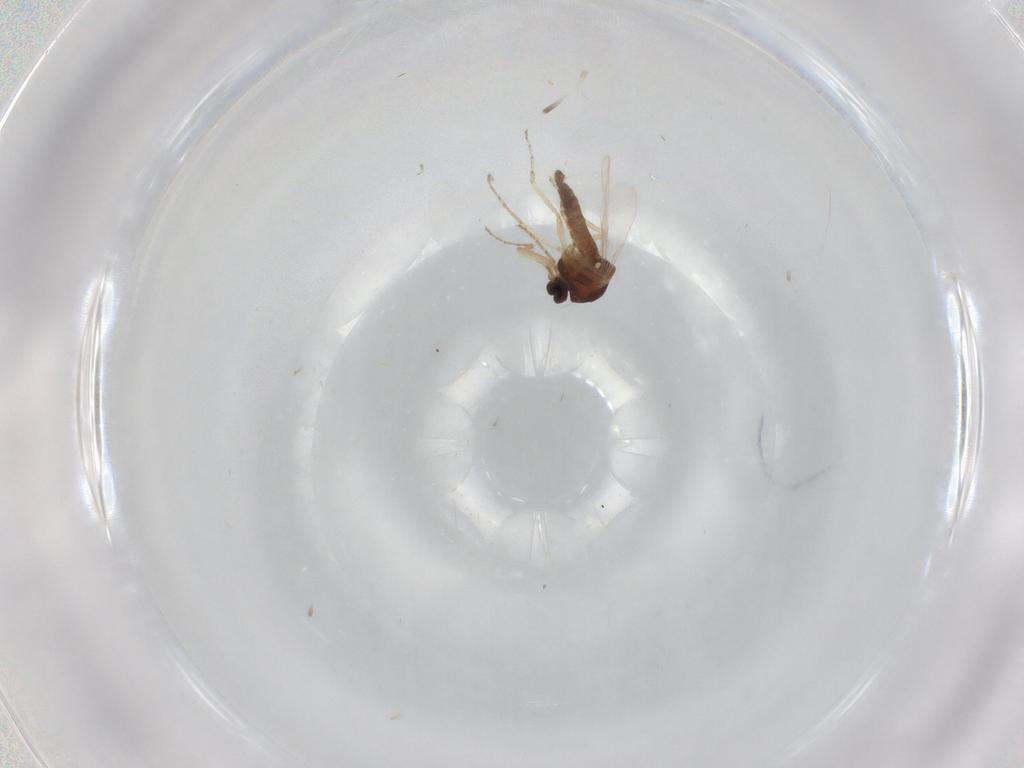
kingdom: Animalia
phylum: Arthropoda
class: Insecta
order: Diptera
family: Ceratopogonidae
